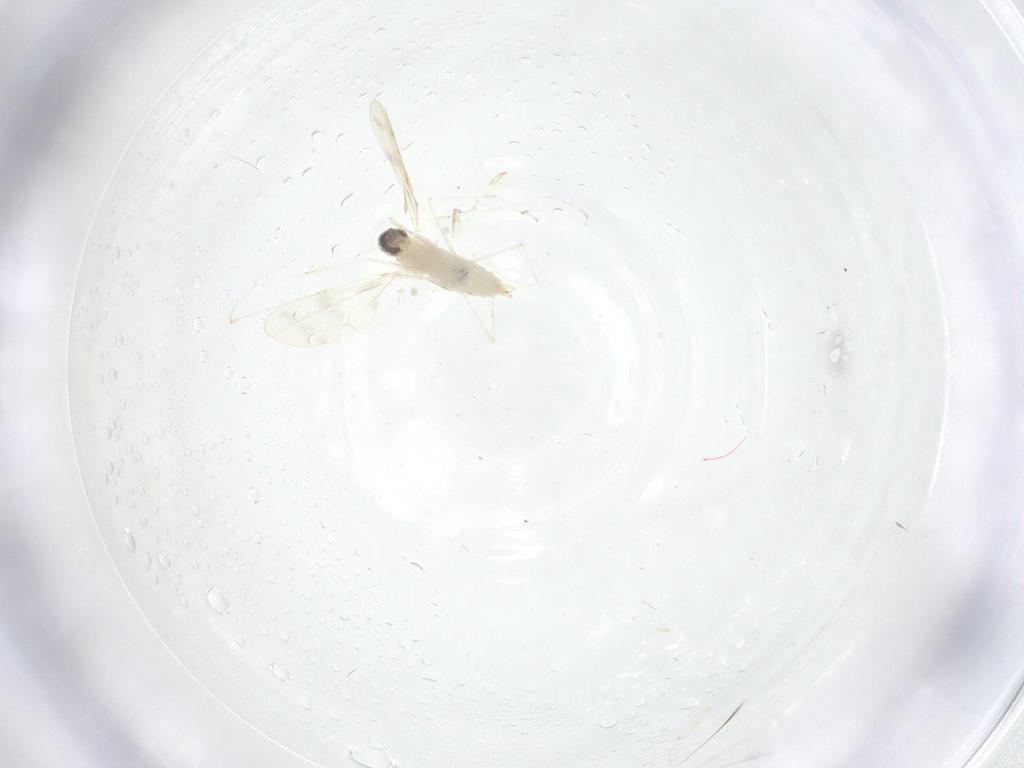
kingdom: Animalia
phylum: Arthropoda
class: Insecta
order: Diptera
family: Cecidomyiidae
